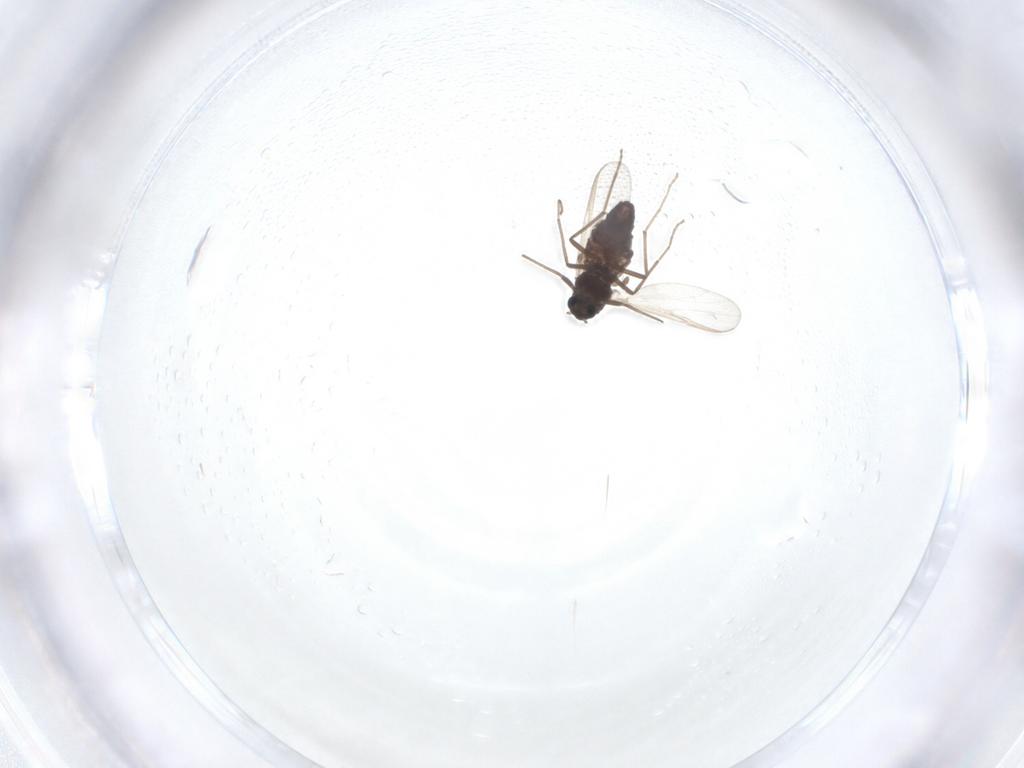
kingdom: Animalia
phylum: Arthropoda
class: Insecta
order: Diptera
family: Chironomidae
